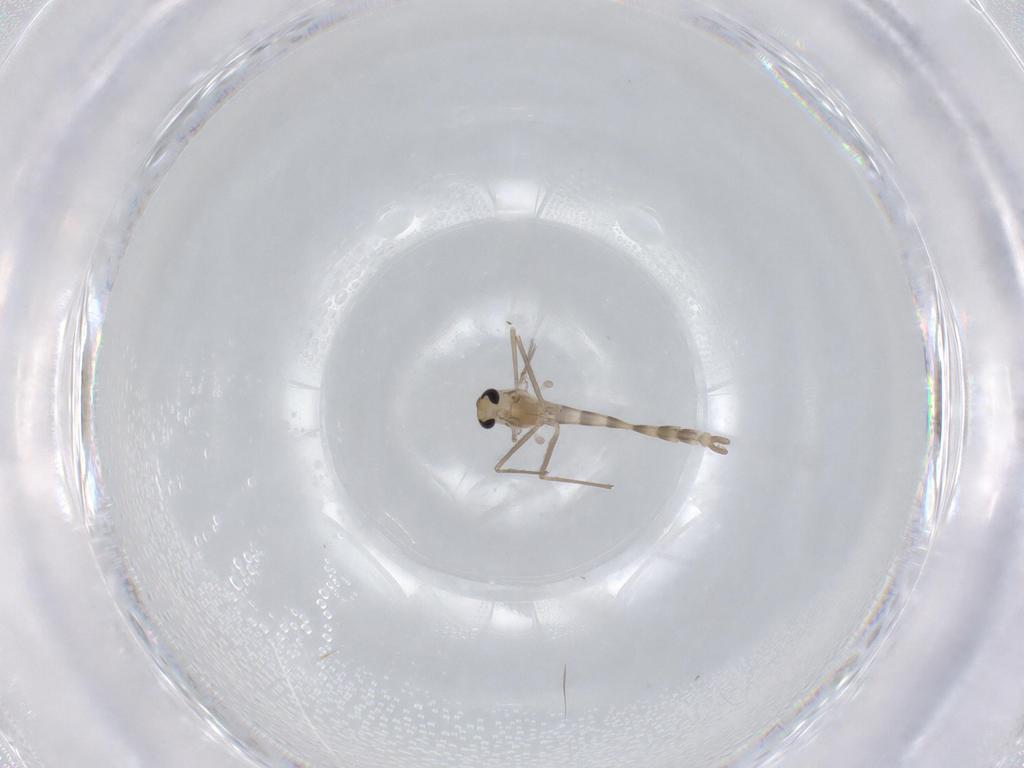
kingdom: Animalia
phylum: Arthropoda
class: Insecta
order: Diptera
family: Chironomidae
